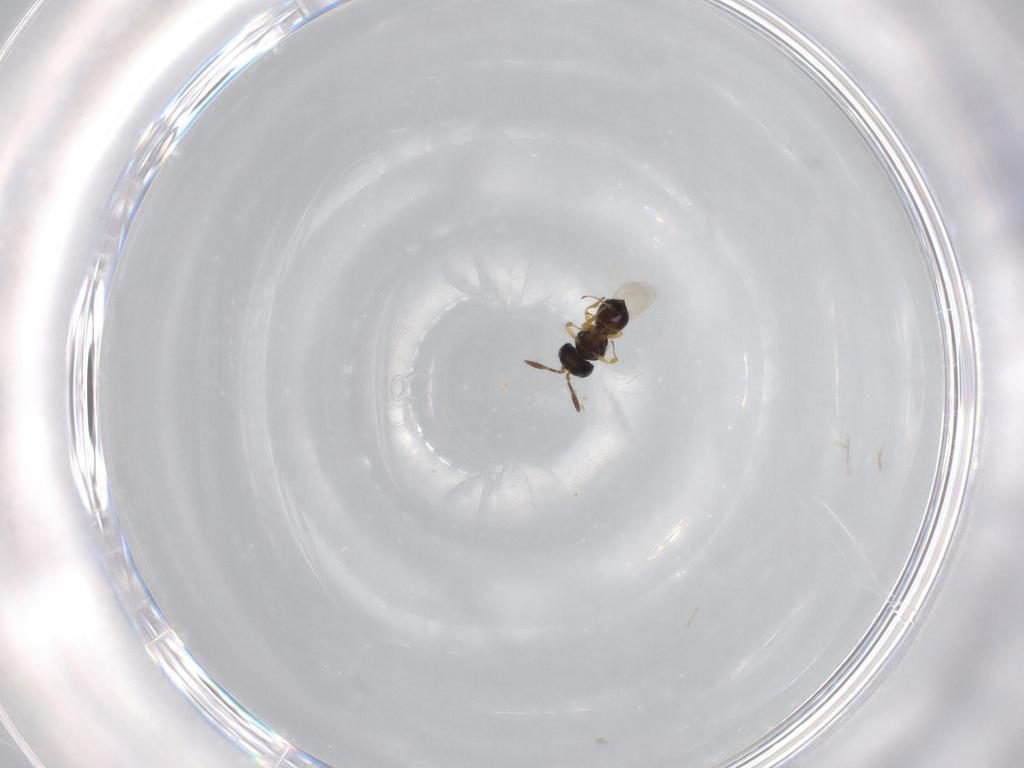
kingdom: Animalia
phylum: Arthropoda
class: Insecta
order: Hymenoptera
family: Scelionidae
